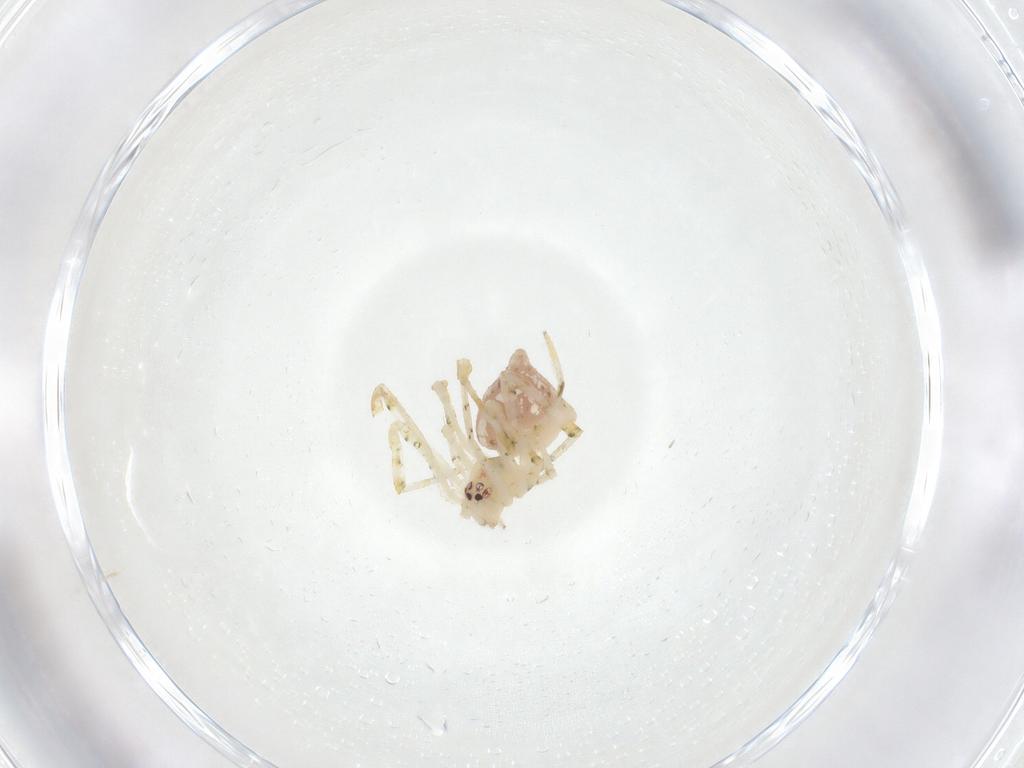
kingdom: Animalia
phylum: Arthropoda
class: Arachnida
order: Araneae
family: Theridiidae
